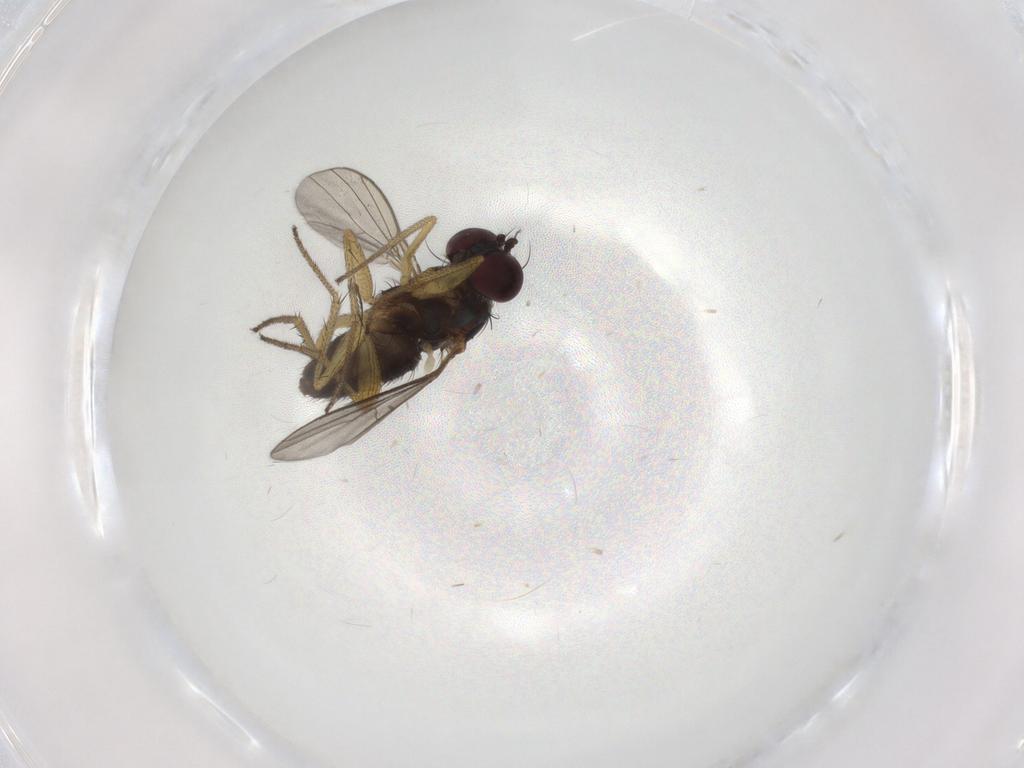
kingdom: Animalia
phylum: Arthropoda
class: Insecta
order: Diptera
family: Dolichopodidae
